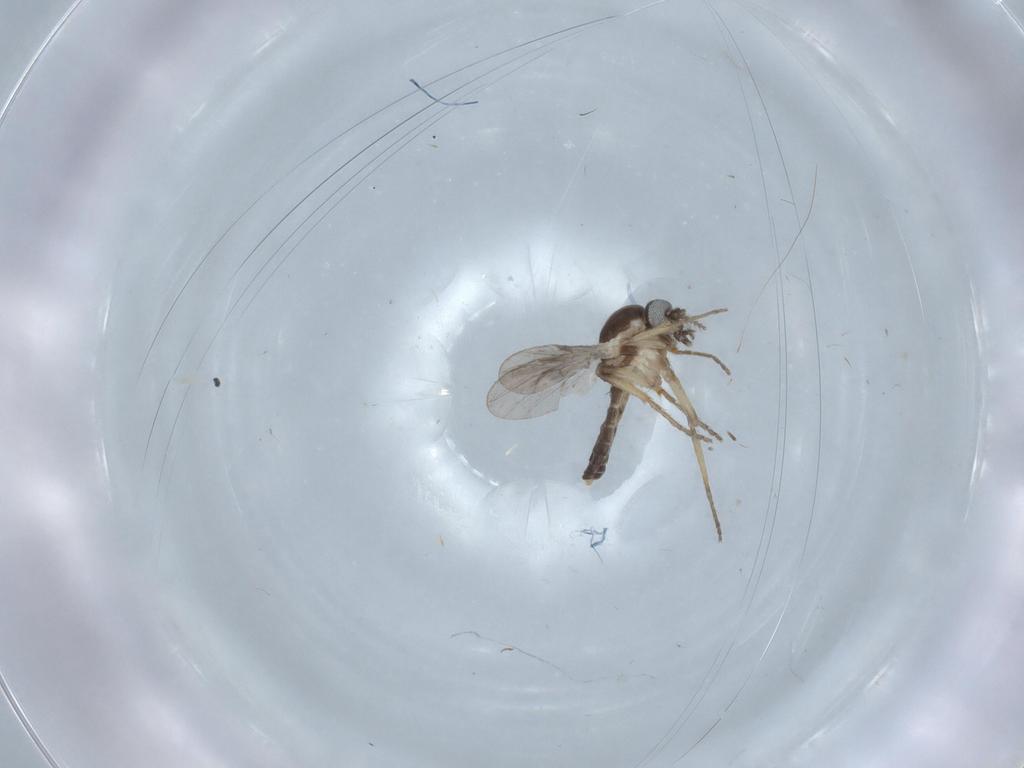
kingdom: Animalia
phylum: Arthropoda
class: Insecta
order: Diptera
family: Ceratopogonidae
